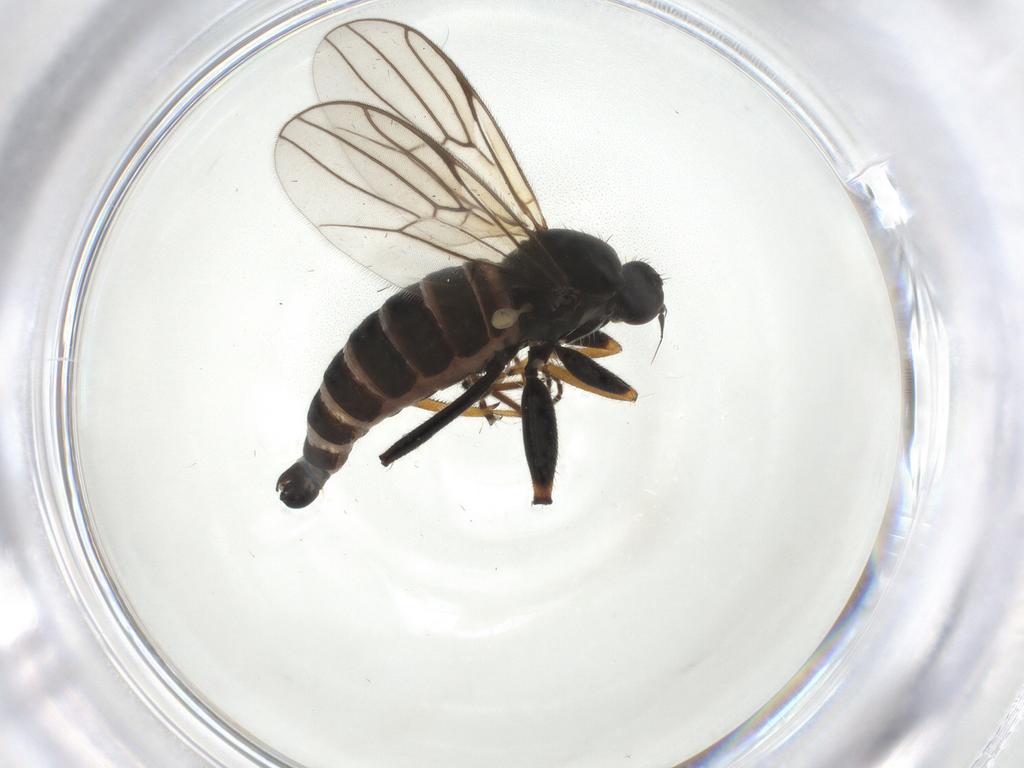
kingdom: Animalia
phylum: Arthropoda
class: Insecta
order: Diptera
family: Hybotidae
